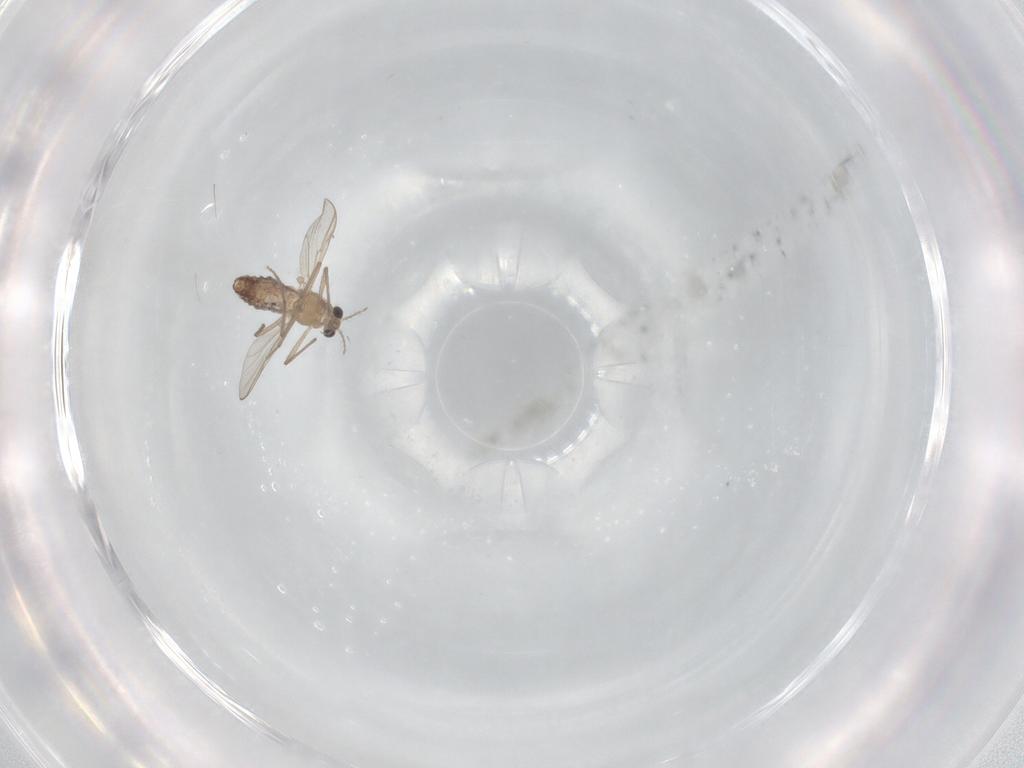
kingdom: Animalia
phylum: Arthropoda
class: Insecta
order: Diptera
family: Chironomidae
